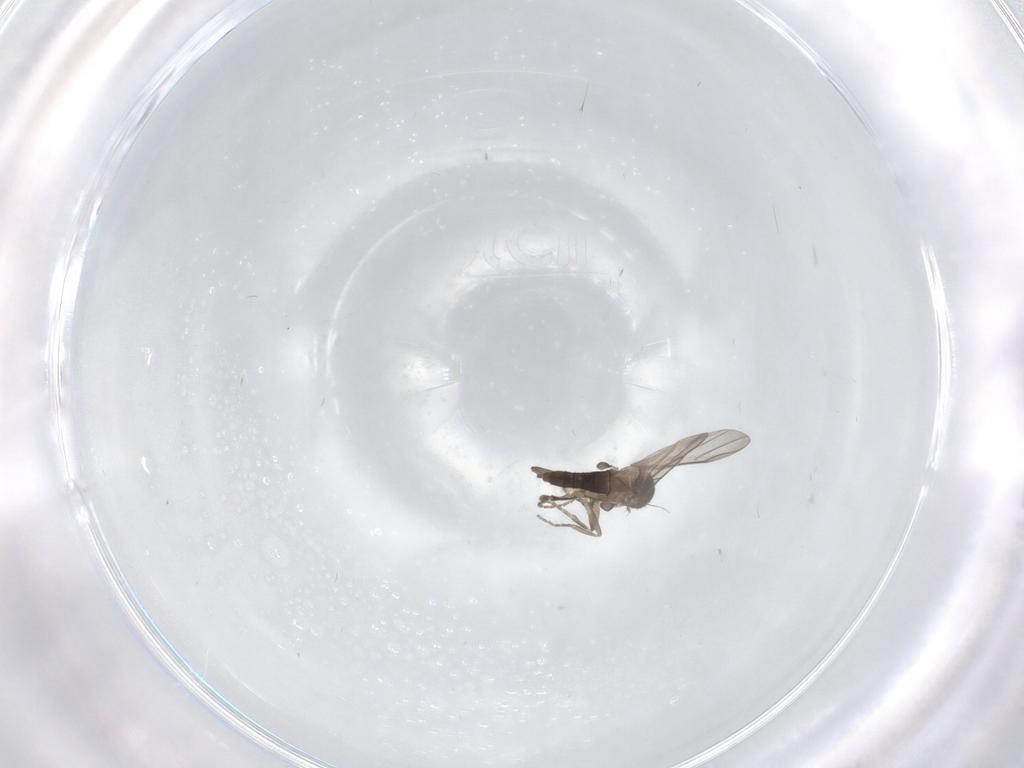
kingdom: Animalia
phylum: Arthropoda
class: Insecta
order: Diptera
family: Phoridae
